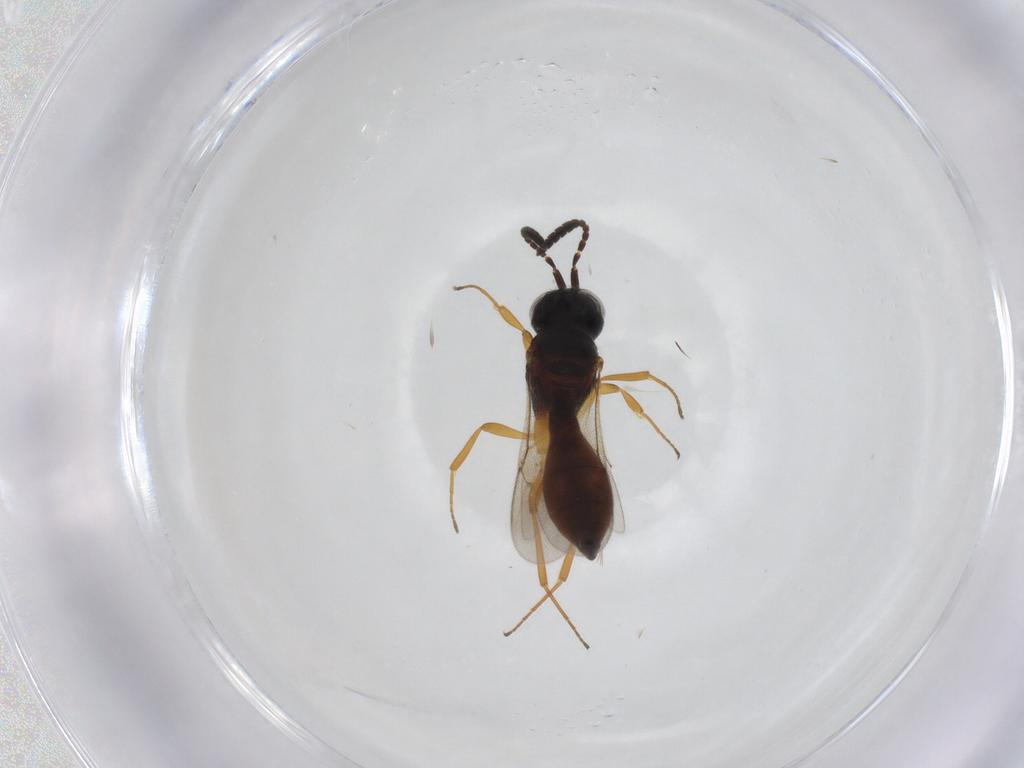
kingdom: Animalia
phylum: Arthropoda
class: Insecta
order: Hymenoptera
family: Scelionidae
